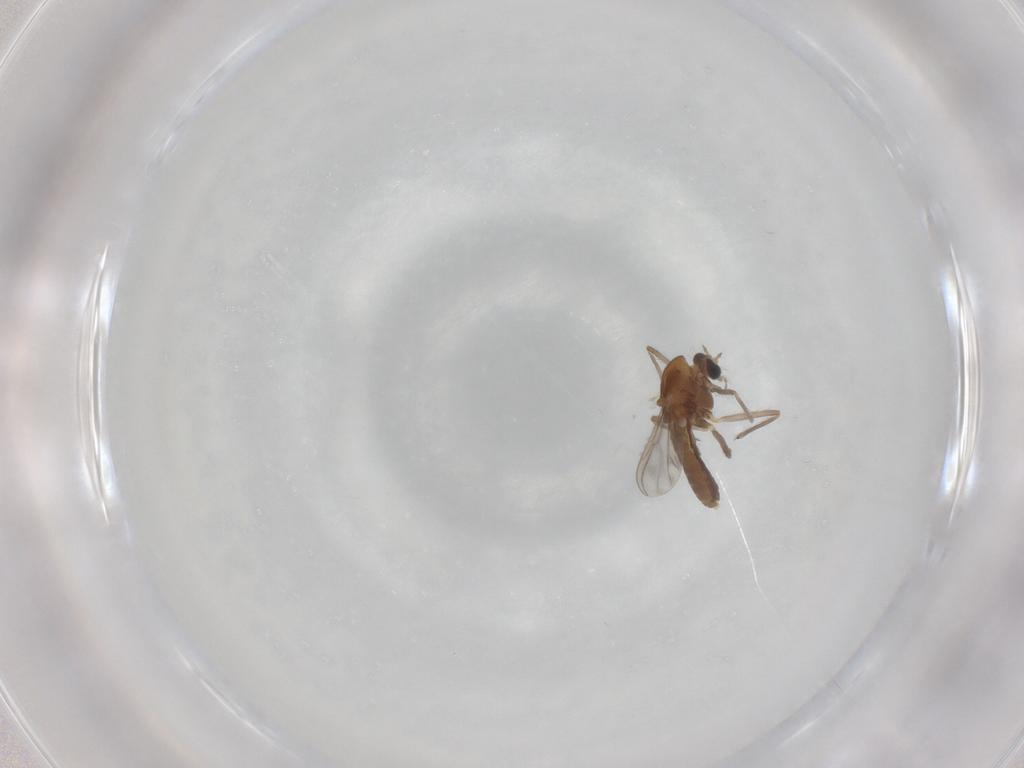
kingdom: Animalia
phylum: Arthropoda
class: Insecta
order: Diptera
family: Chironomidae
